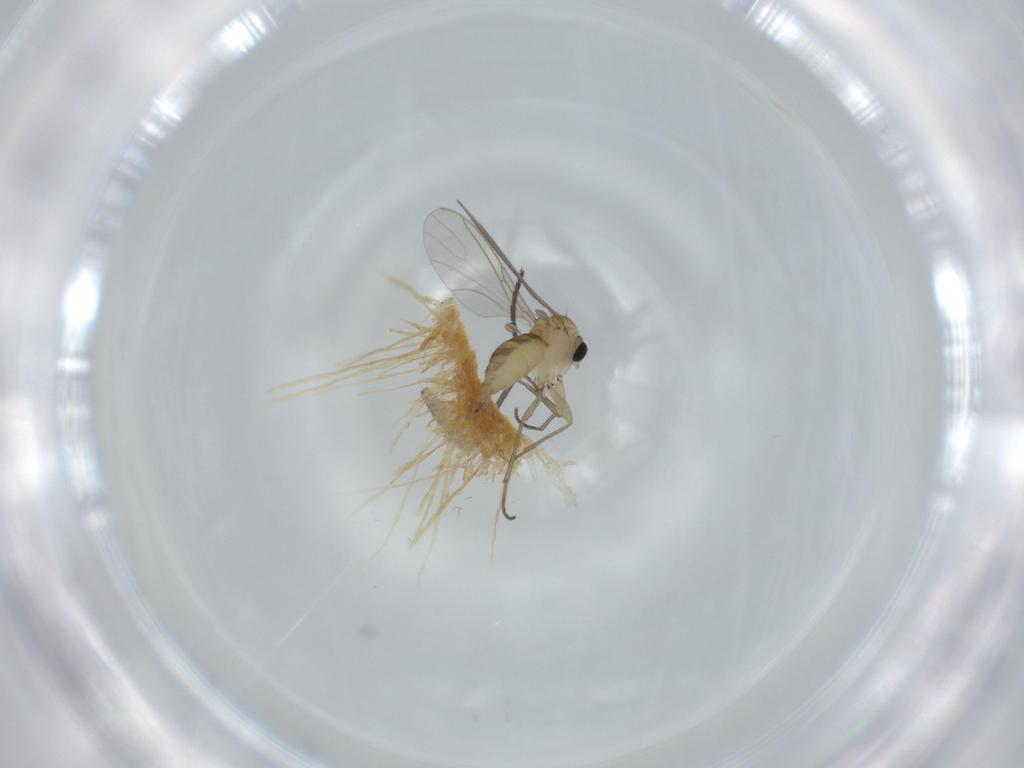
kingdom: Animalia
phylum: Arthropoda
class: Insecta
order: Diptera
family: Sciaridae
